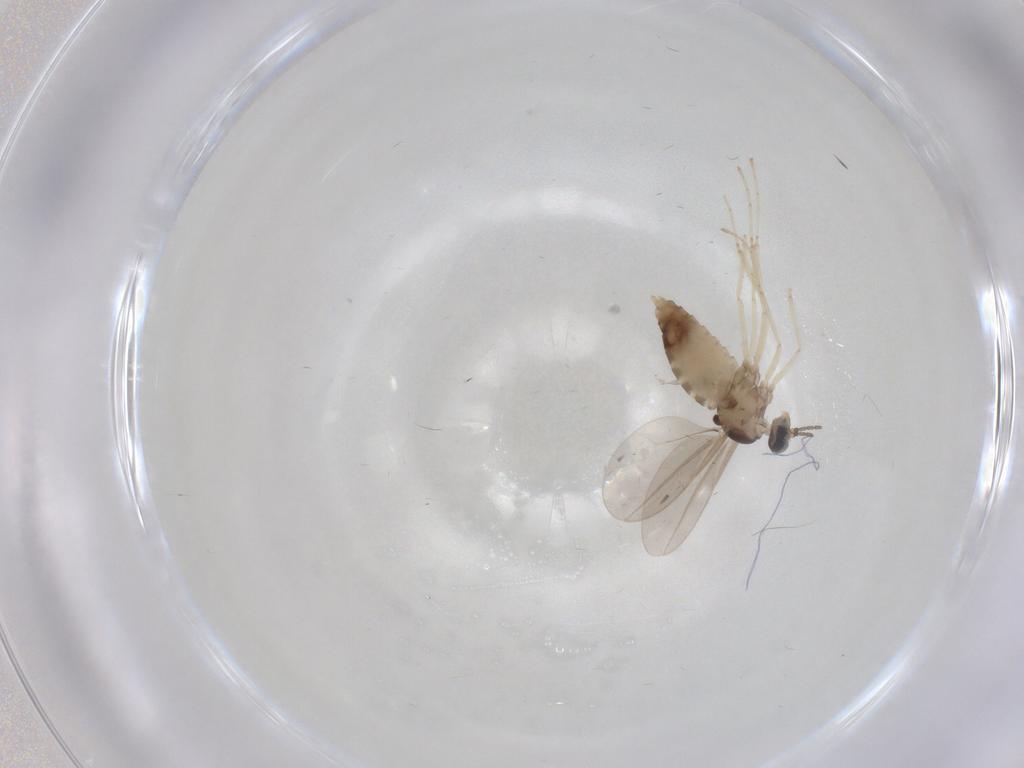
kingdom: Animalia
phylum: Arthropoda
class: Insecta
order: Diptera
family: Cecidomyiidae
